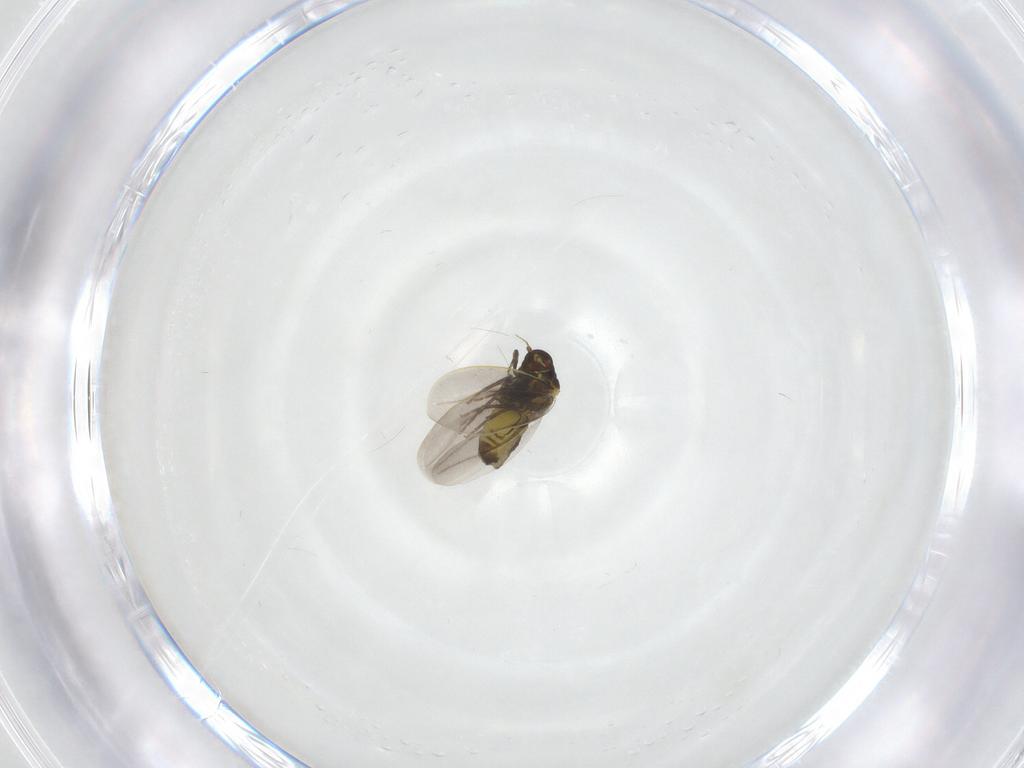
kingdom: Animalia
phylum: Arthropoda
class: Insecta
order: Hemiptera
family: Aleyrodidae
